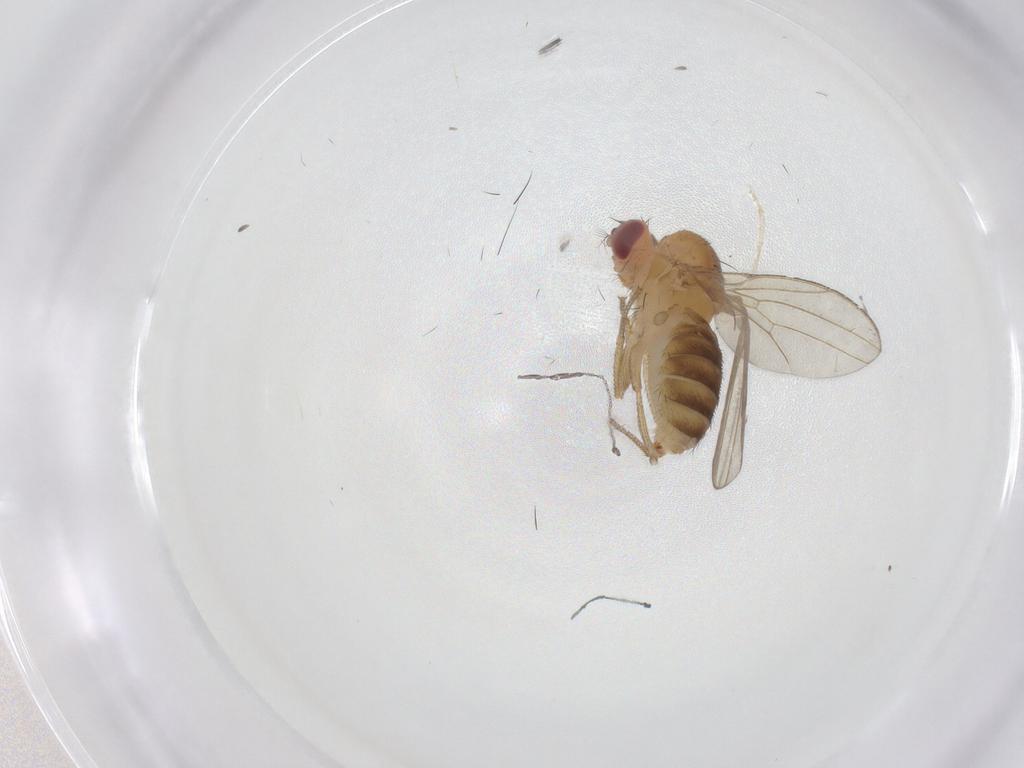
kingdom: Animalia
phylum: Arthropoda
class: Insecta
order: Diptera
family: Drosophilidae
